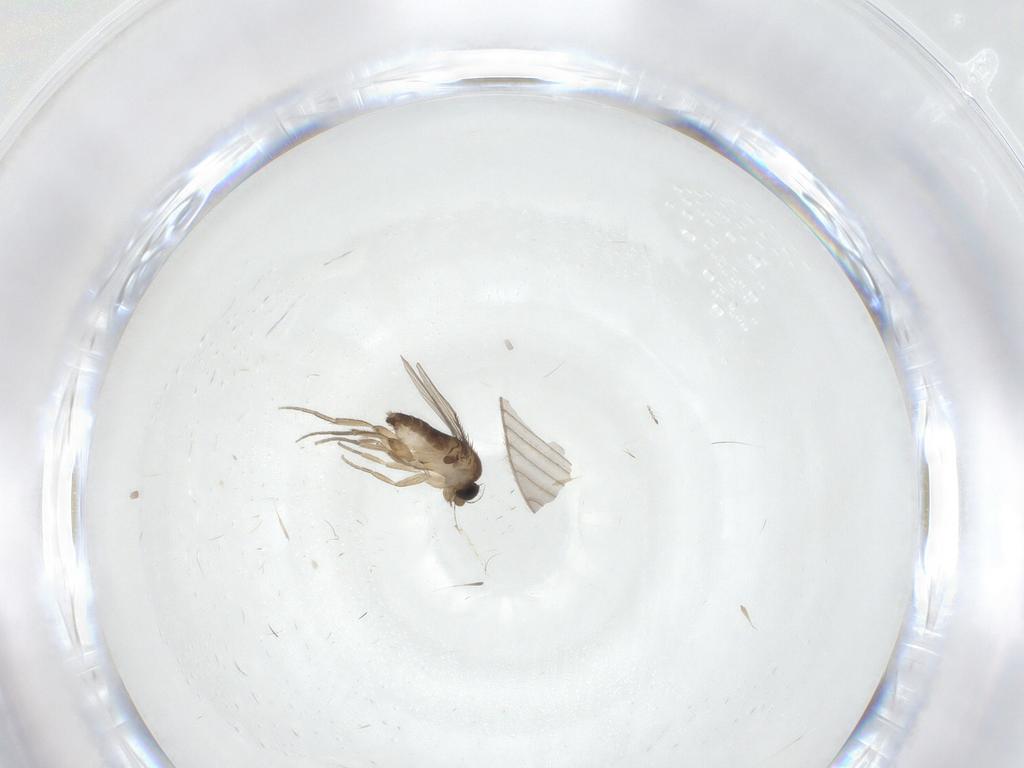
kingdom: Animalia
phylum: Arthropoda
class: Insecta
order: Diptera
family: Phoridae
